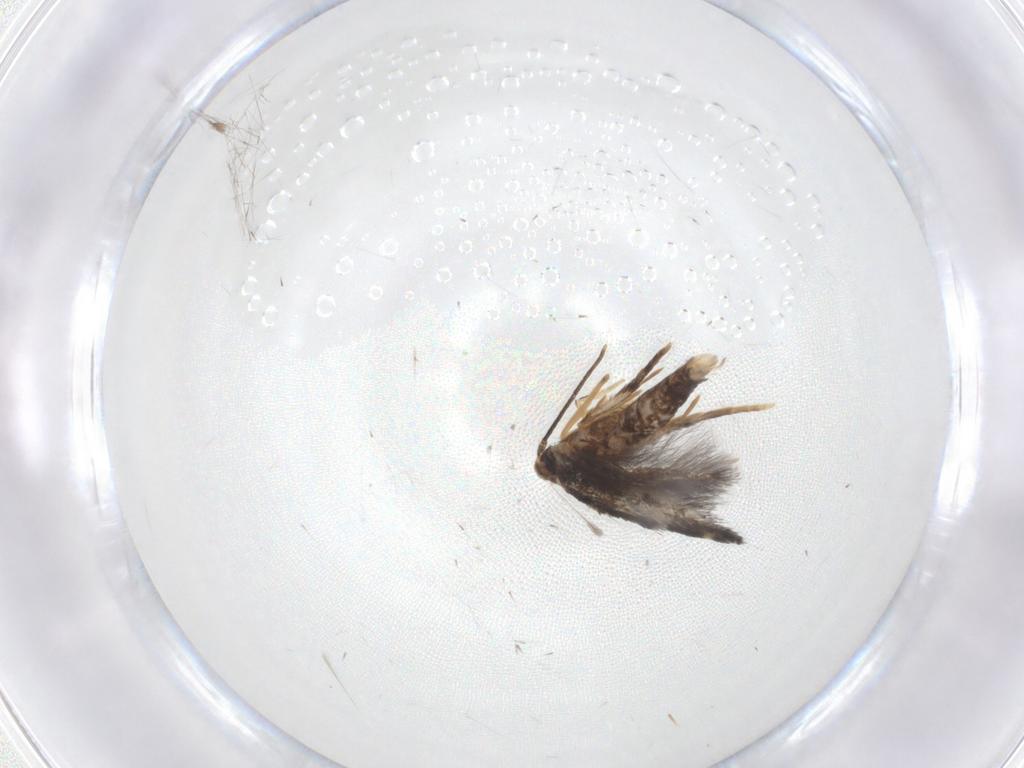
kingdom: Animalia
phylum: Arthropoda
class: Insecta
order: Lepidoptera
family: Gelechiidae
